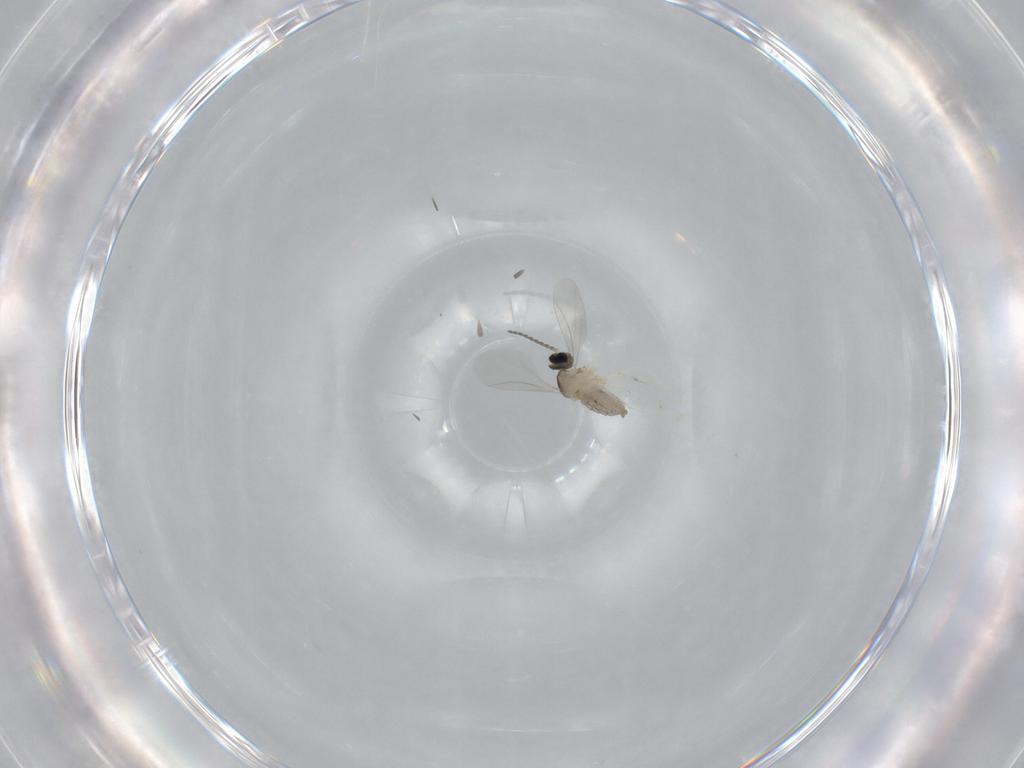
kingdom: Animalia
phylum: Arthropoda
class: Insecta
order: Diptera
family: Cecidomyiidae
